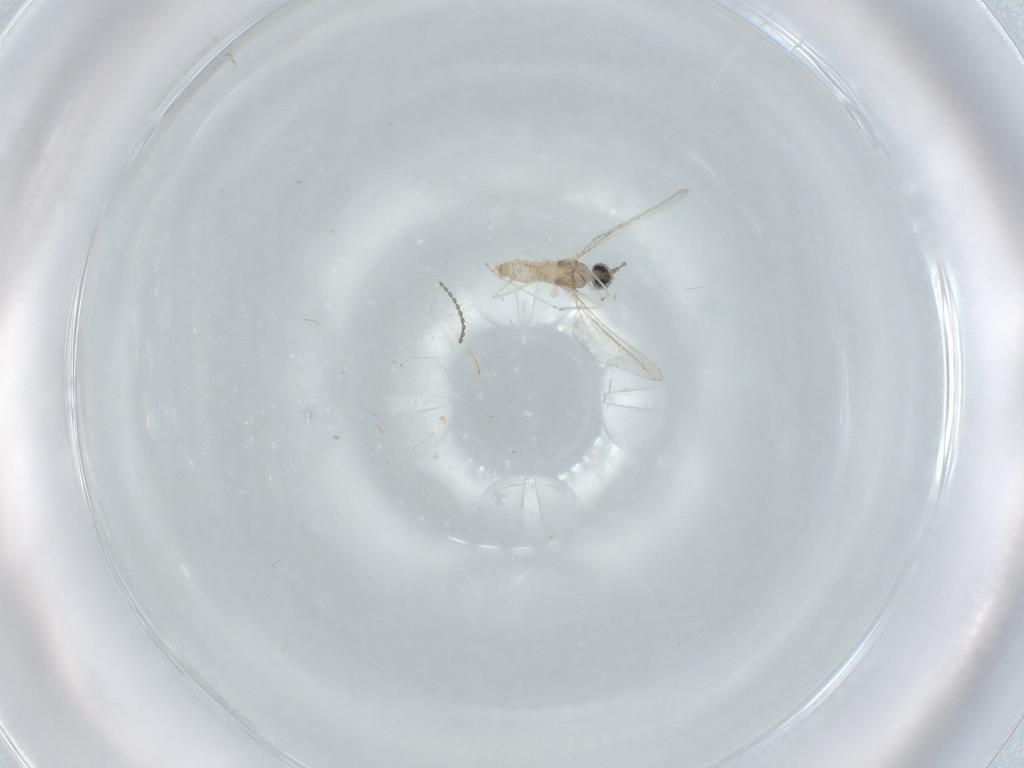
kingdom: Animalia
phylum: Arthropoda
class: Insecta
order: Diptera
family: Cecidomyiidae
